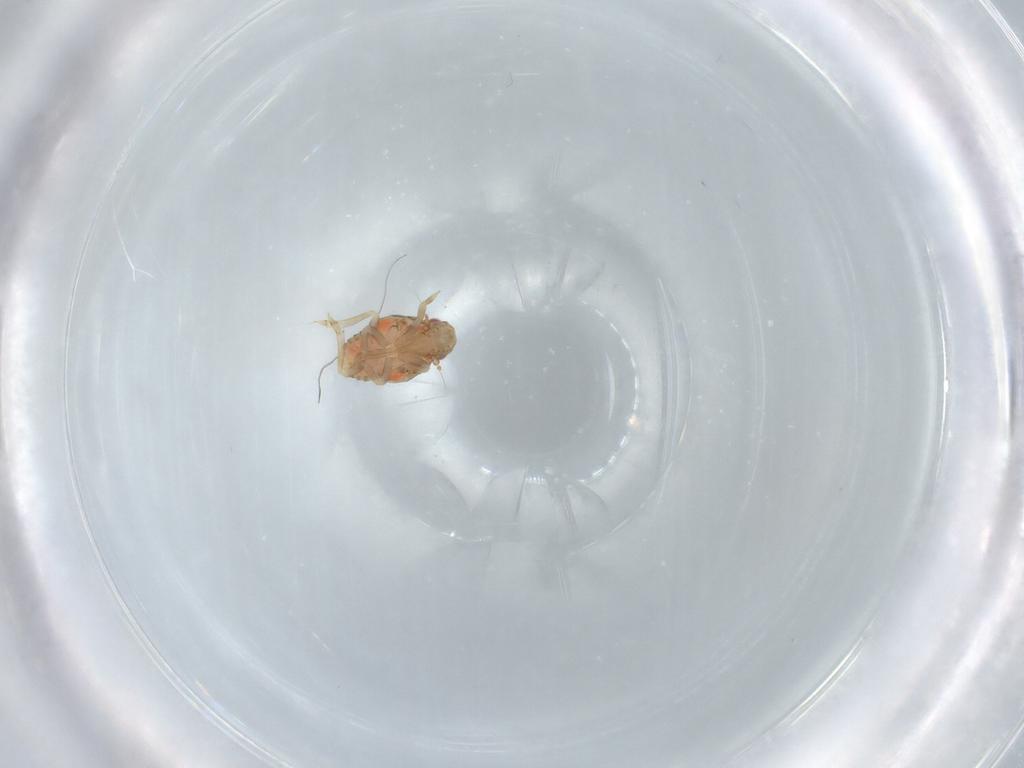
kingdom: Animalia
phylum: Arthropoda
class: Insecta
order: Hemiptera
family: Flatidae
